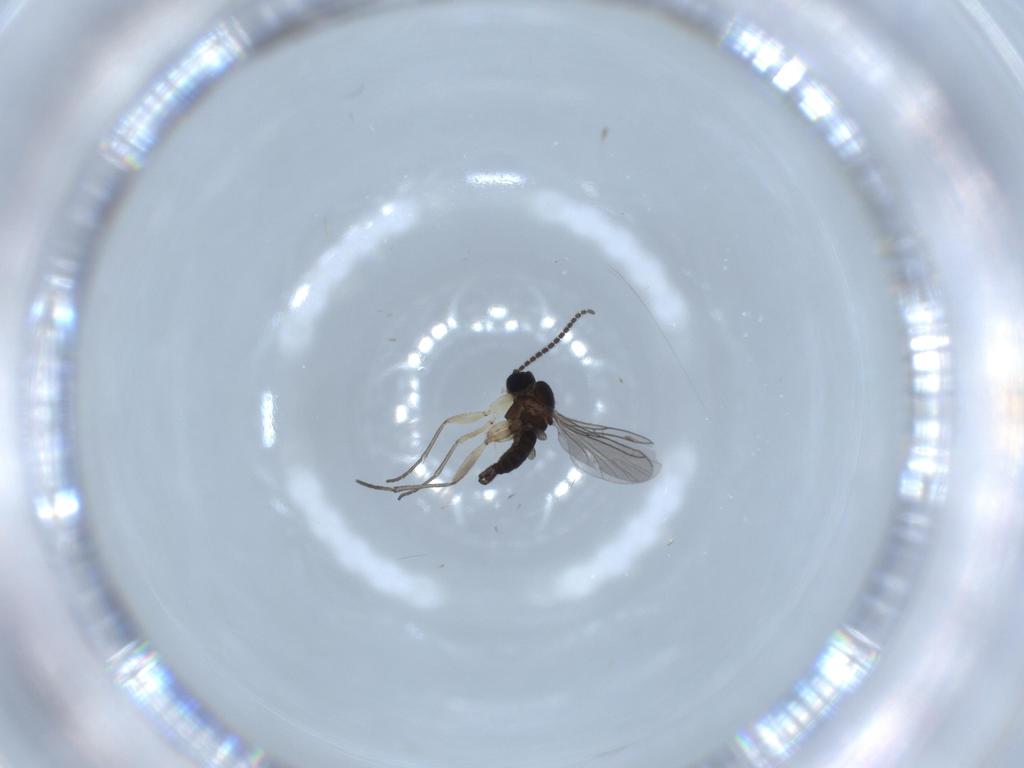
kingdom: Animalia
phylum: Arthropoda
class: Insecta
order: Diptera
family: Sciaridae
